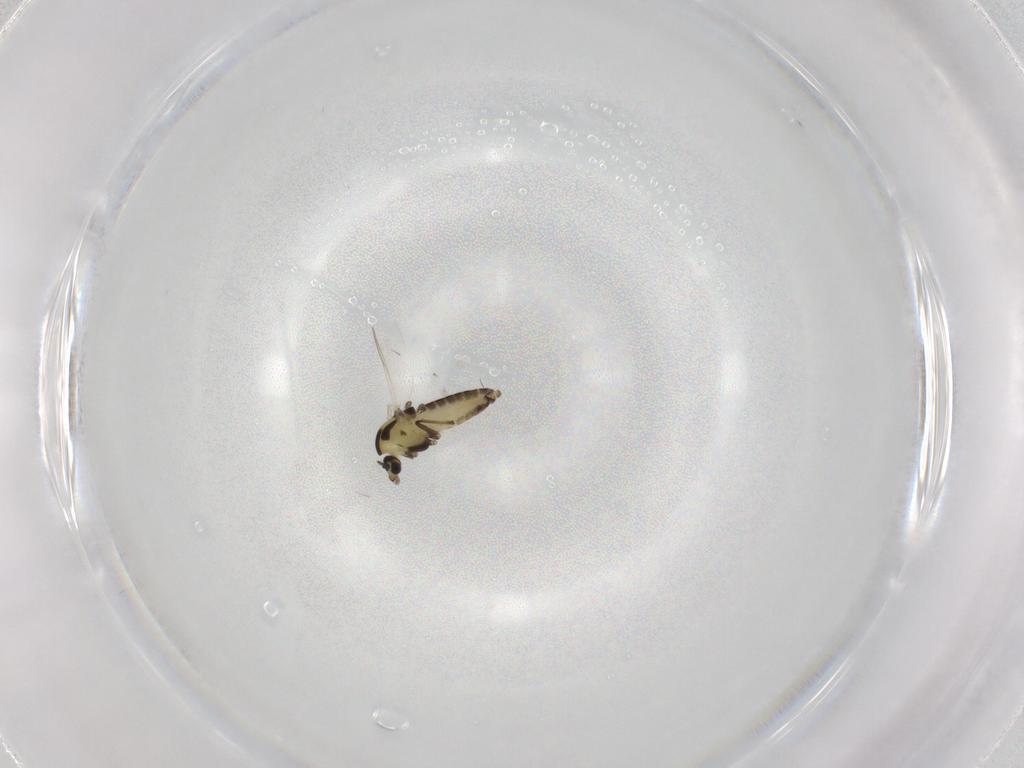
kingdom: Animalia
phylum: Arthropoda
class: Insecta
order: Diptera
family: Chironomidae
